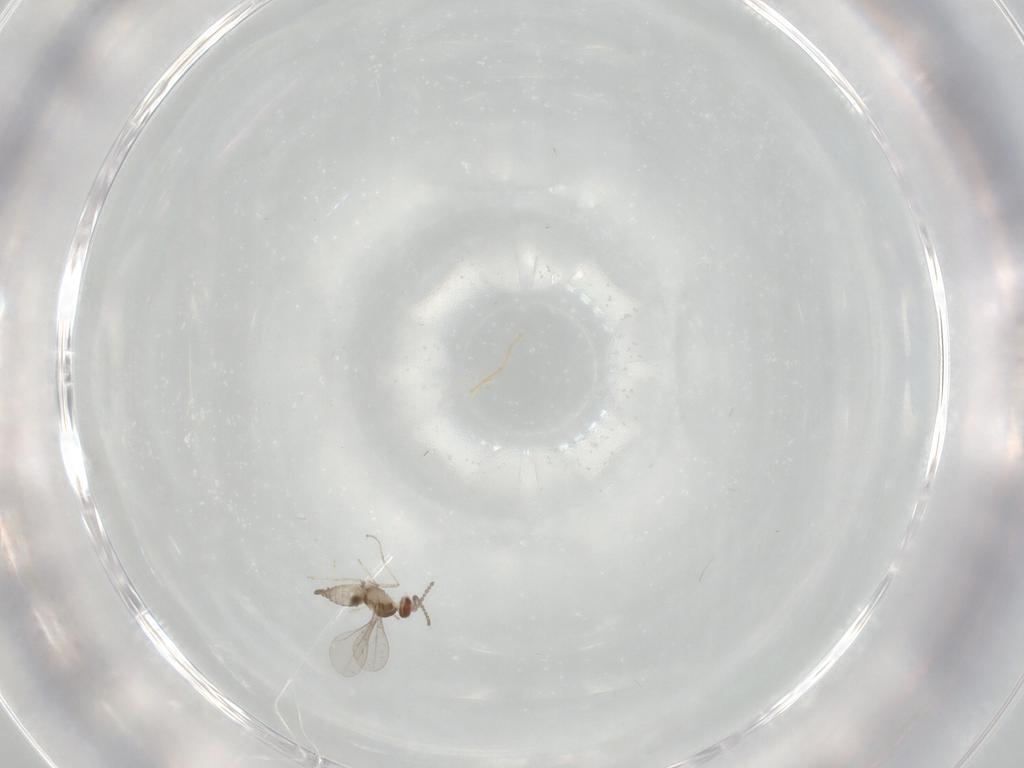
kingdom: Animalia
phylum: Arthropoda
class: Insecta
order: Diptera
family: Cecidomyiidae
